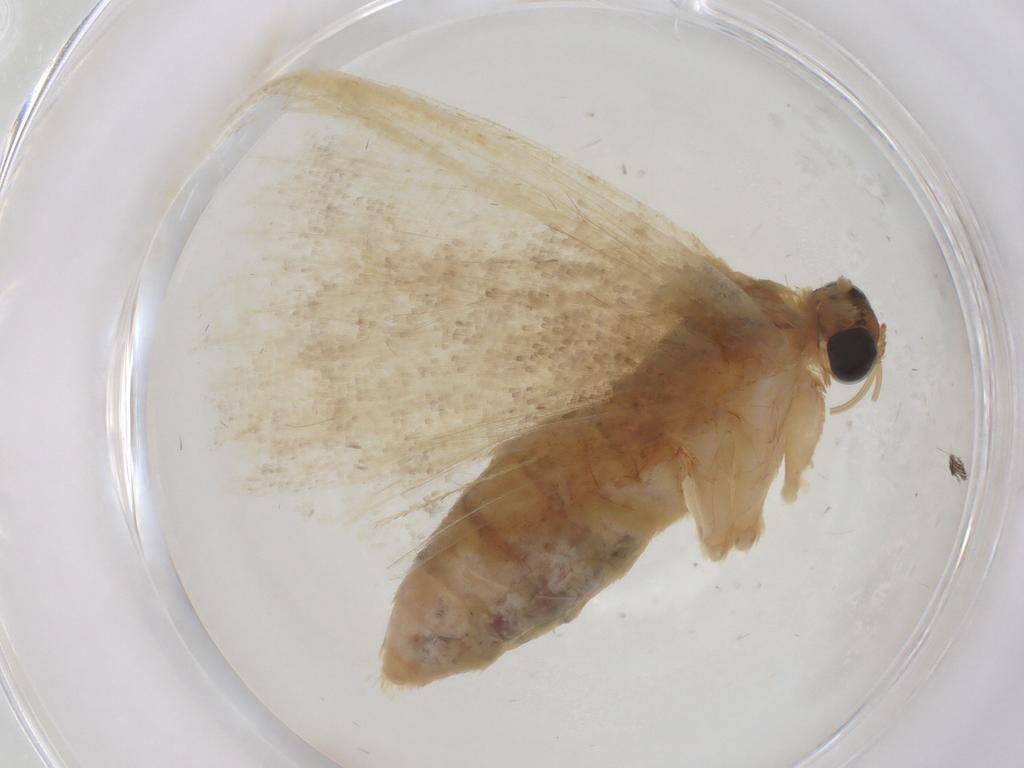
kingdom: Animalia
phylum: Arthropoda
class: Insecta
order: Lepidoptera
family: Geometridae
